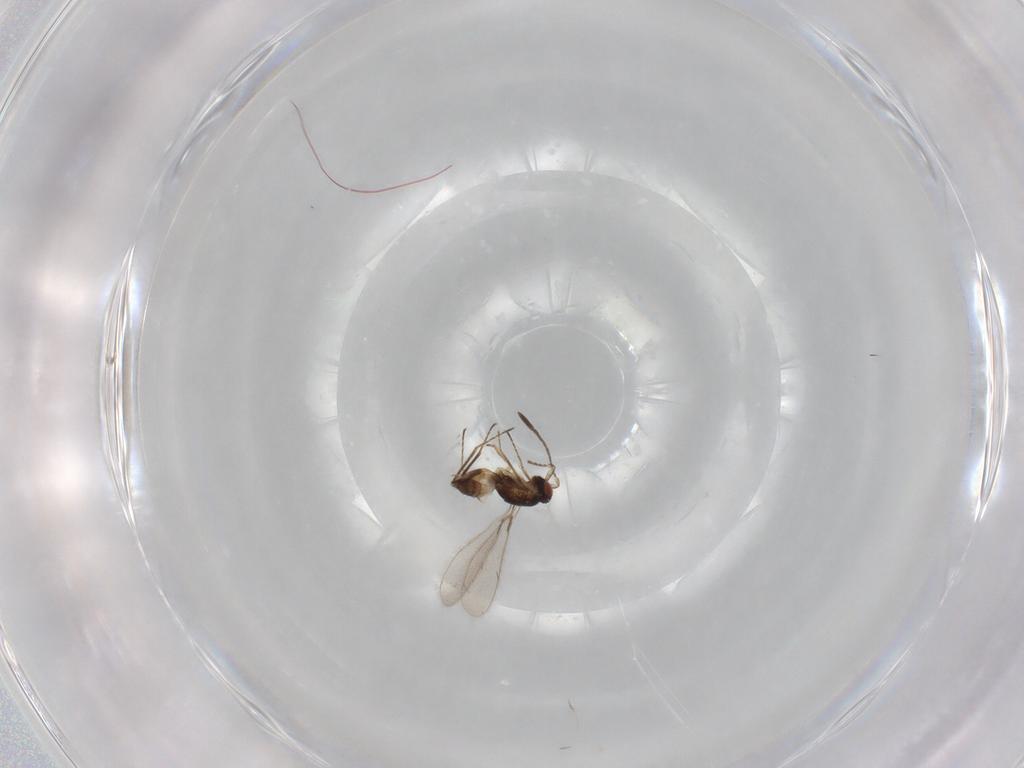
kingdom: Animalia
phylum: Arthropoda
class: Insecta
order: Hymenoptera
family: Mymaridae
